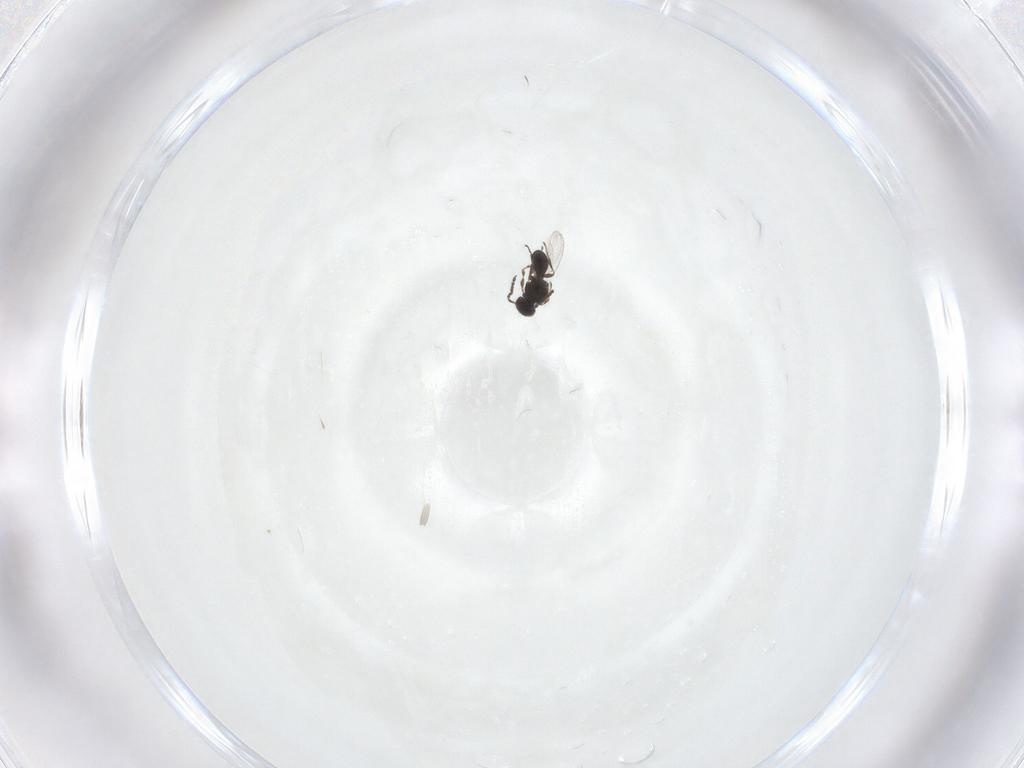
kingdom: Animalia
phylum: Arthropoda
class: Insecta
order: Hymenoptera
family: Platygastridae
